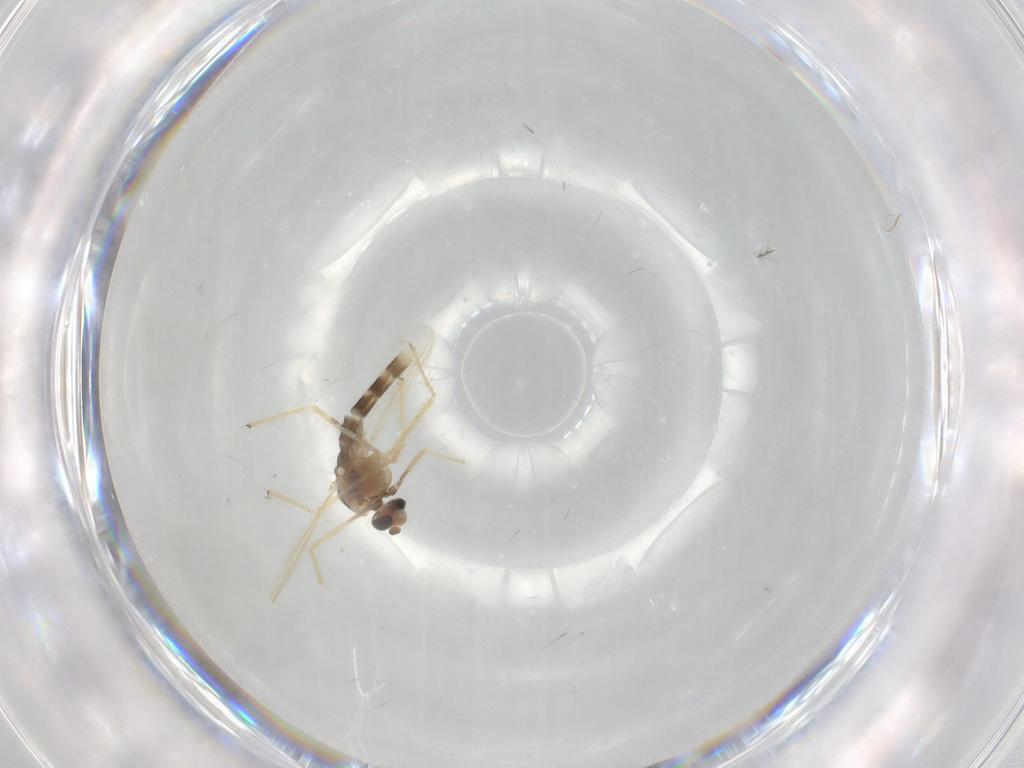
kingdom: Animalia
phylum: Arthropoda
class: Insecta
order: Diptera
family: Chironomidae
